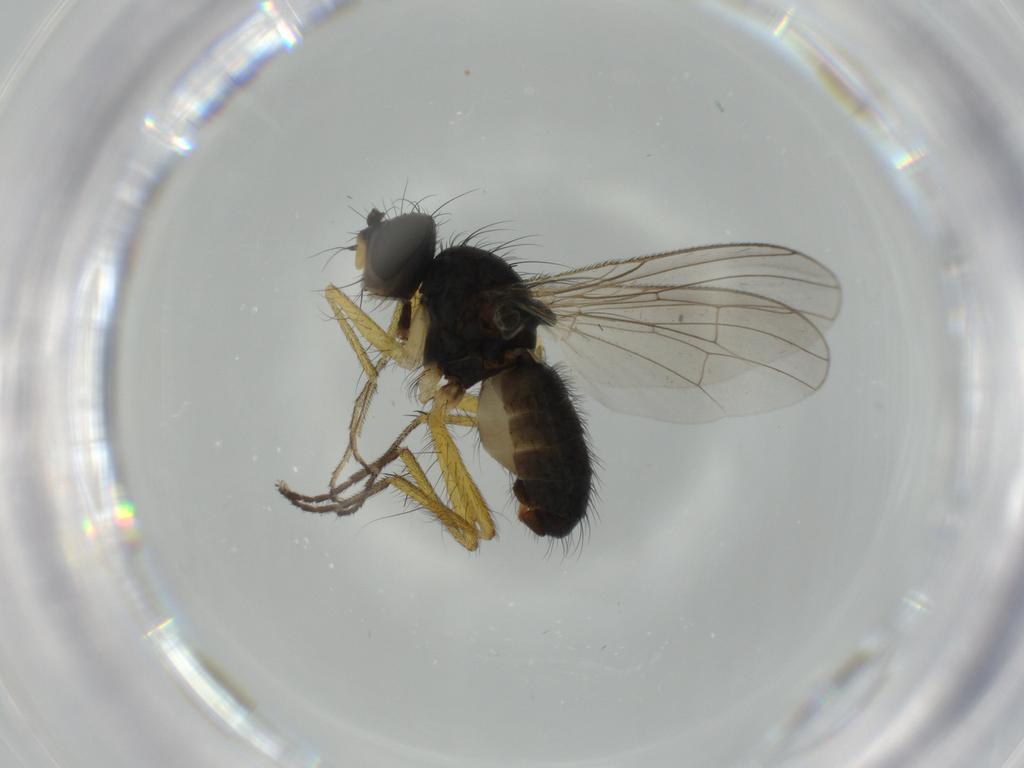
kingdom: Animalia
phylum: Arthropoda
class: Insecta
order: Diptera
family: Muscidae
